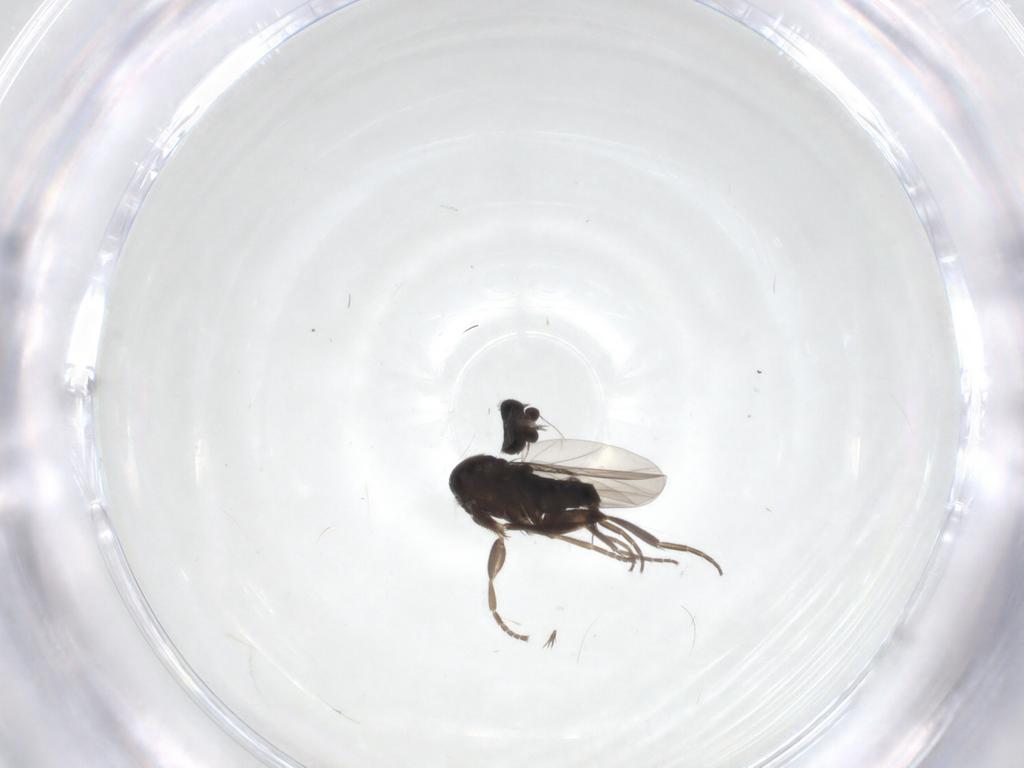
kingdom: Animalia
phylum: Arthropoda
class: Insecta
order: Diptera
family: Phoridae
